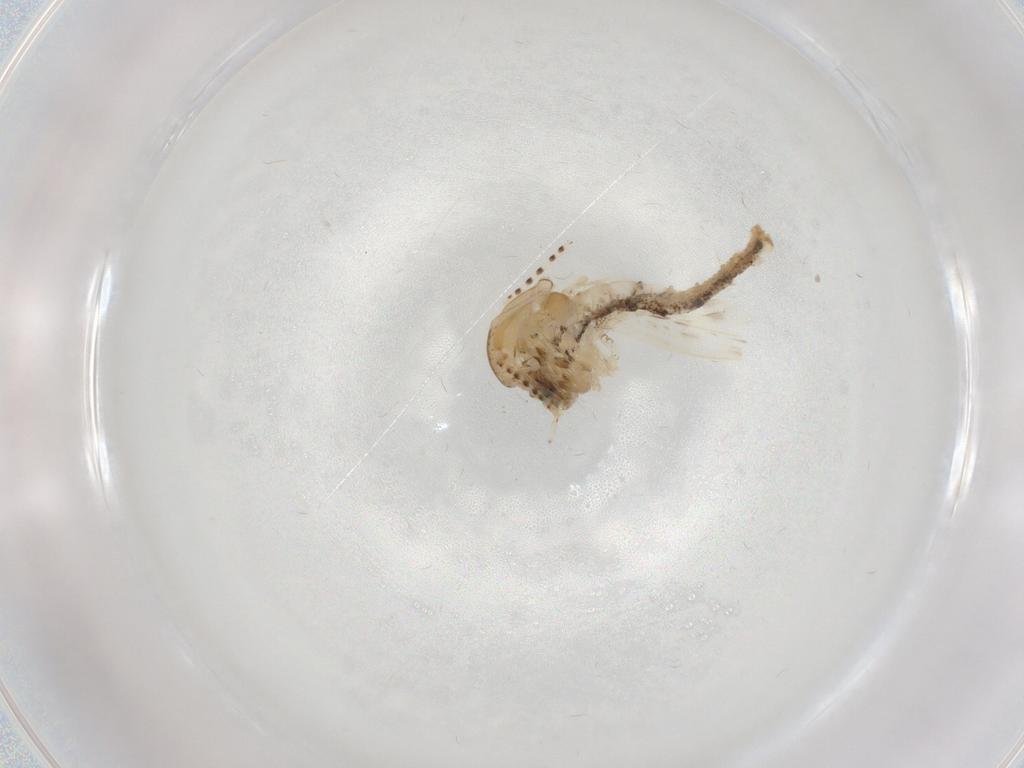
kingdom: Animalia
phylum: Arthropoda
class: Insecta
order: Diptera
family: Chaoboridae
